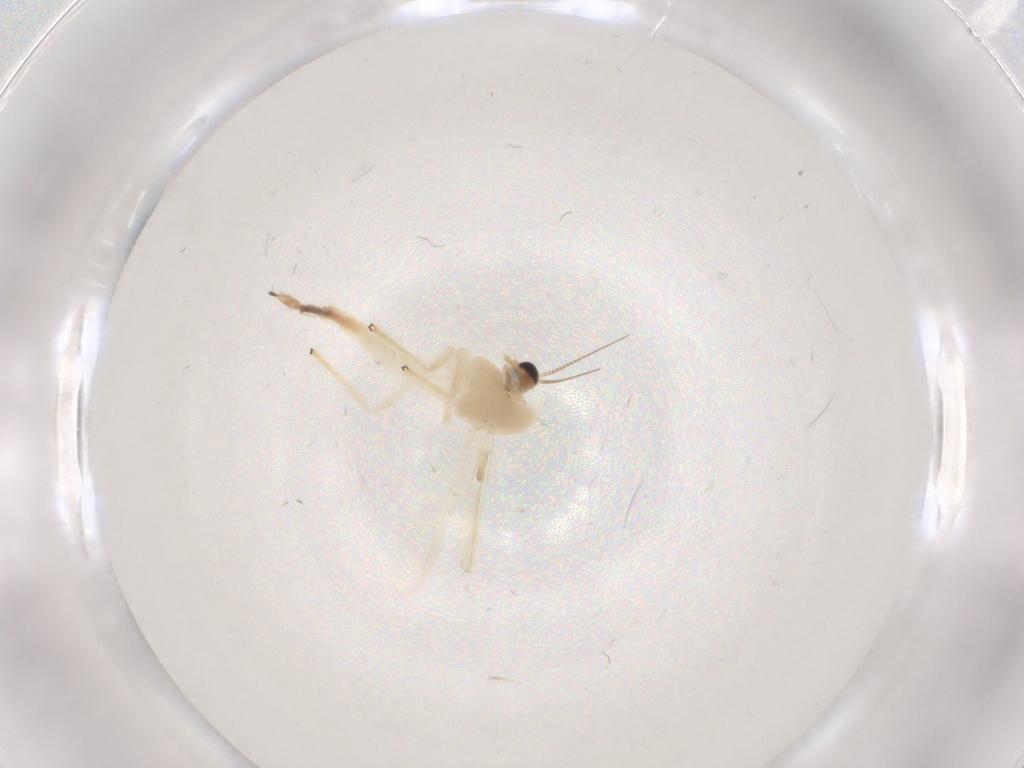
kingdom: Animalia
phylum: Arthropoda
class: Insecta
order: Diptera
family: Chironomidae
